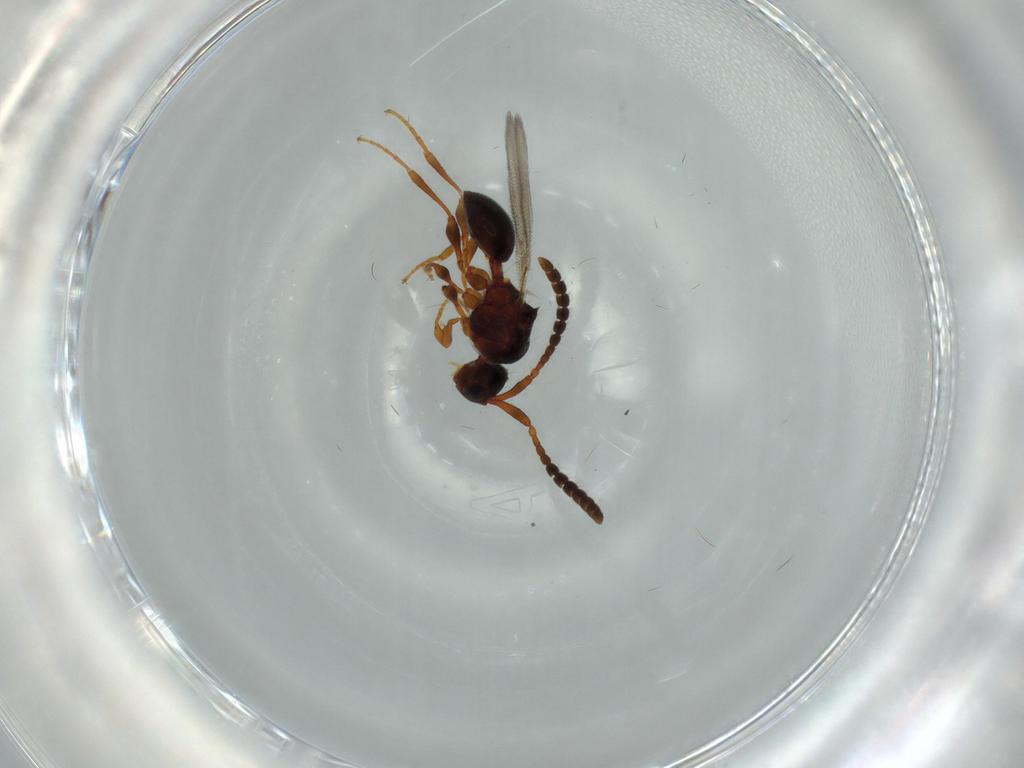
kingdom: Animalia
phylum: Arthropoda
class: Insecta
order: Hymenoptera
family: Diapriidae
